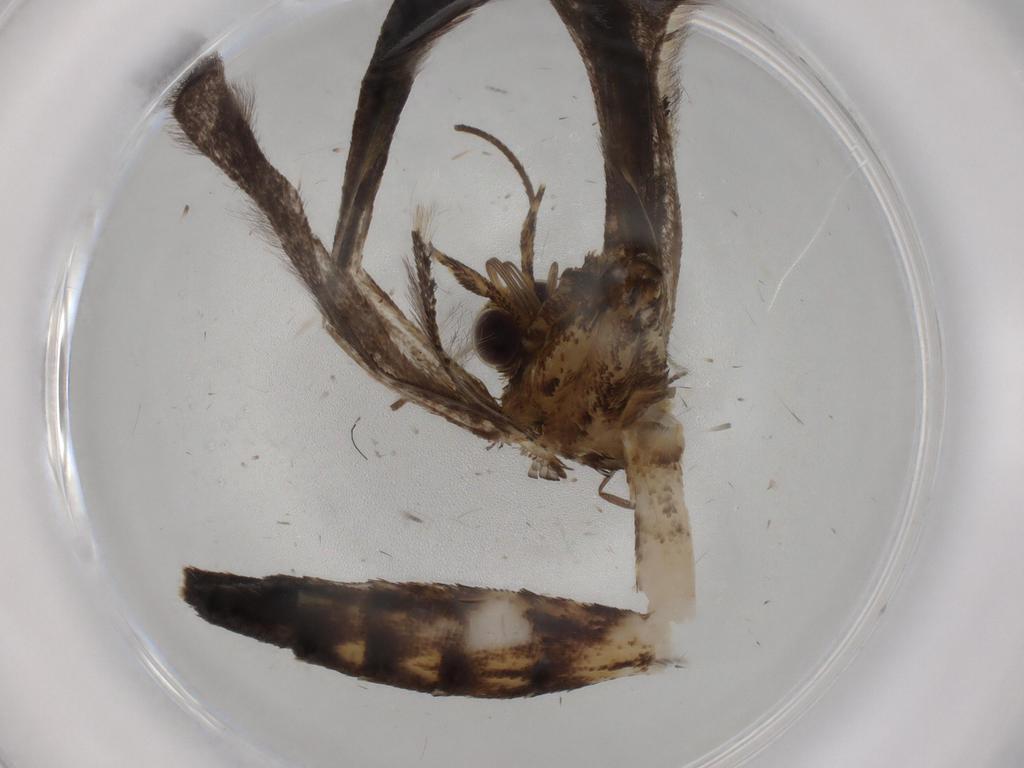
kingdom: Animalia
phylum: Arthropoda
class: Insecta
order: Lepidoptera
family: Pterophoridae
